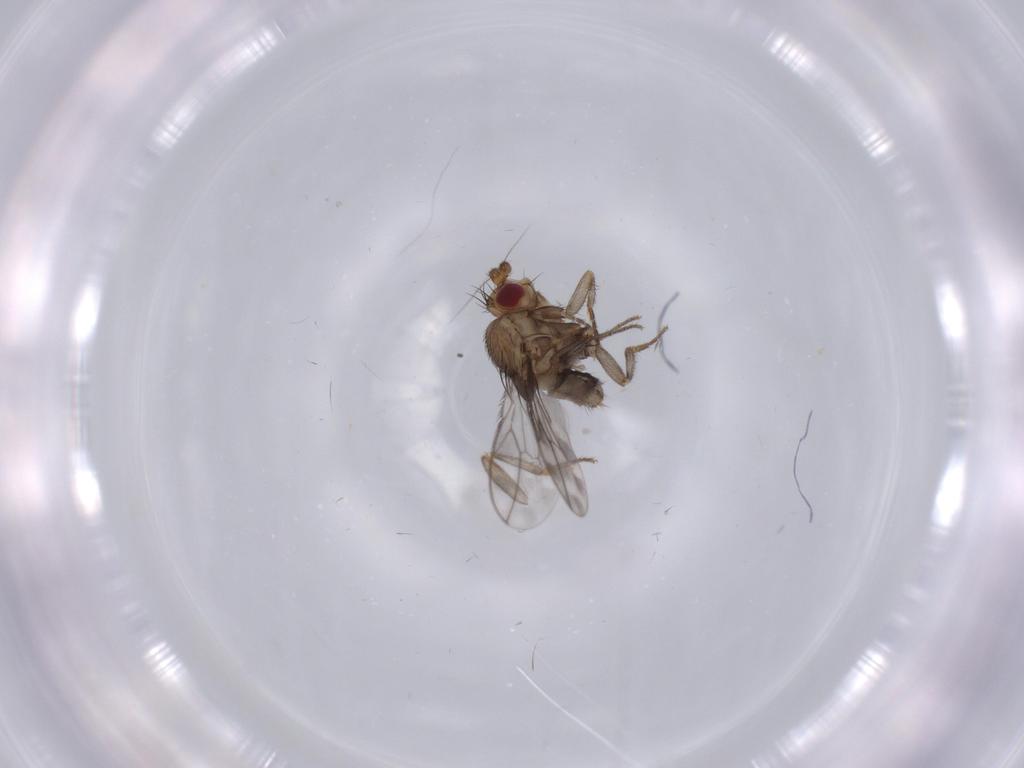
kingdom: Animalia
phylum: Arthropoda
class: Insecta
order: Diptera
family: Sphaeroceridae
